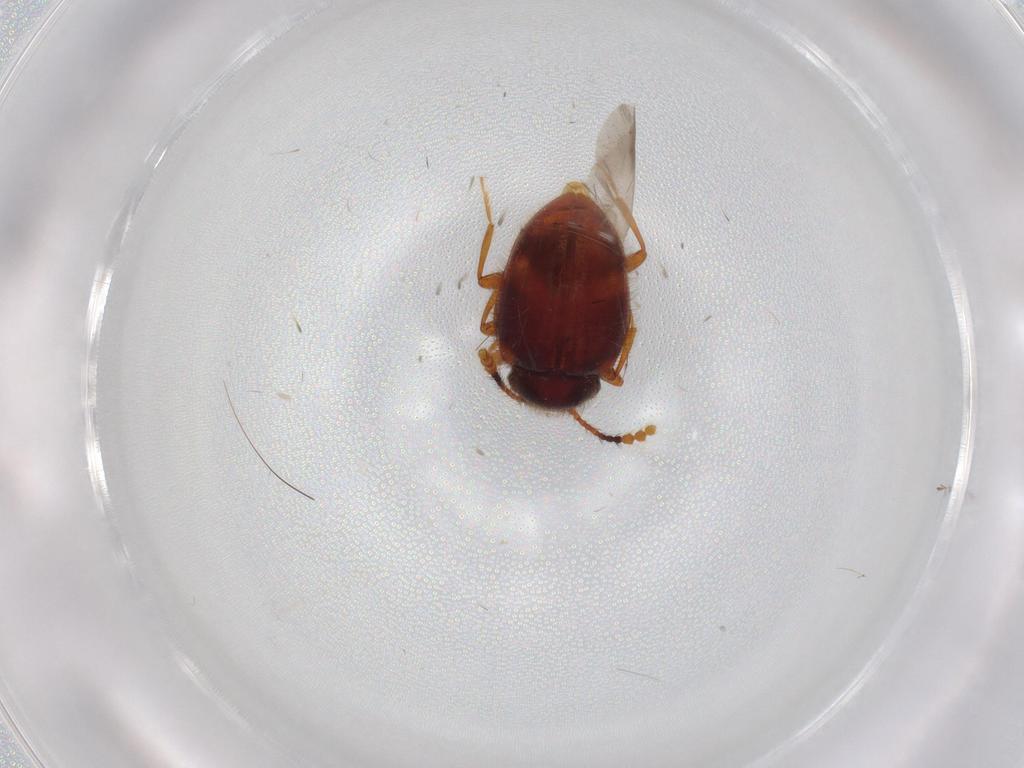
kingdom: Animalia
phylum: Arthropoda
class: Insecta
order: Coleoptera
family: Erotylidae
